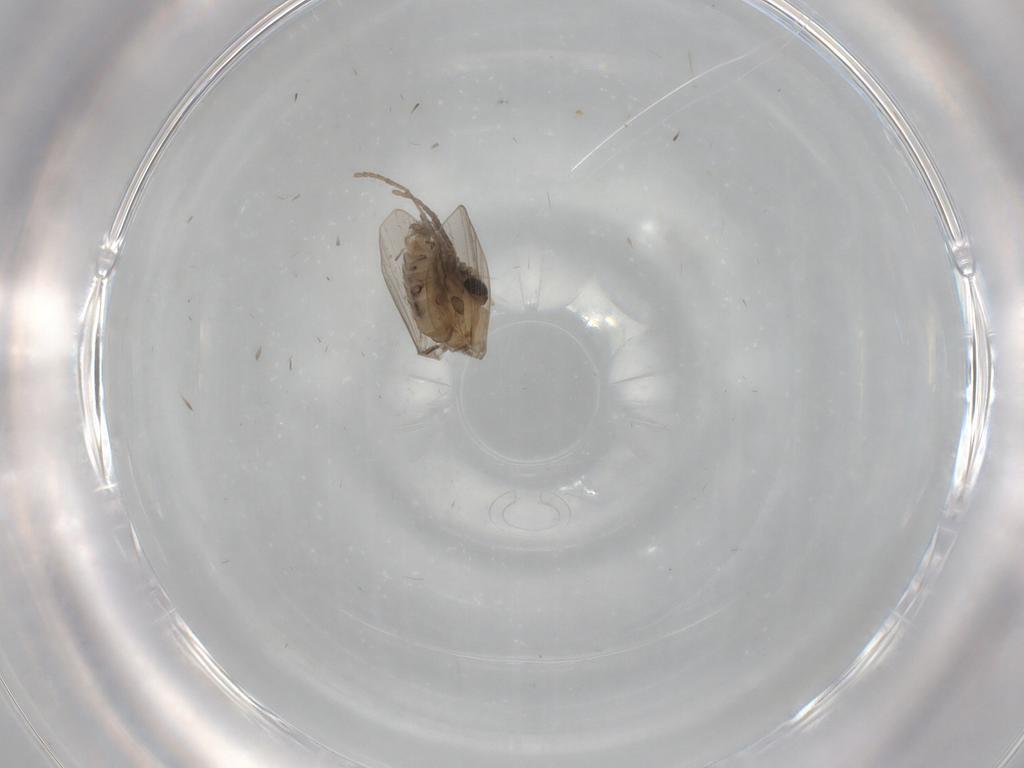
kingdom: Animalia
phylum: Arthropoda
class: Insecta
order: Diptera
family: Psychodidae
